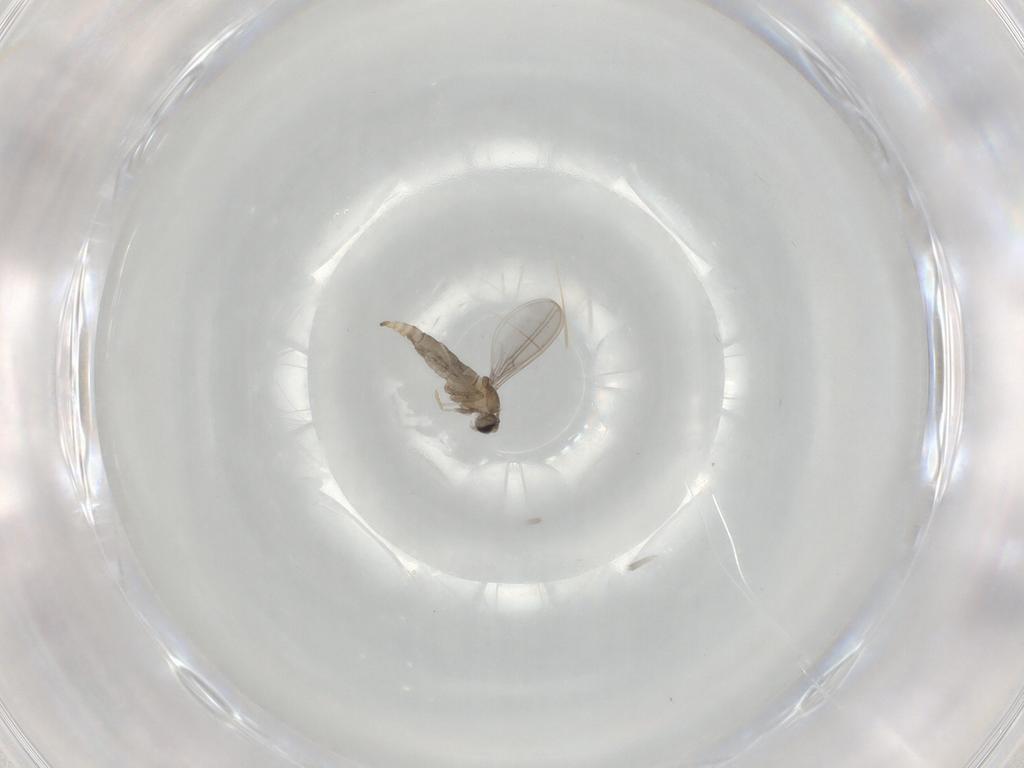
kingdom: Animalia
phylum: Arthropoda
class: Insecta
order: Diptera
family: Cecidomyiidae
